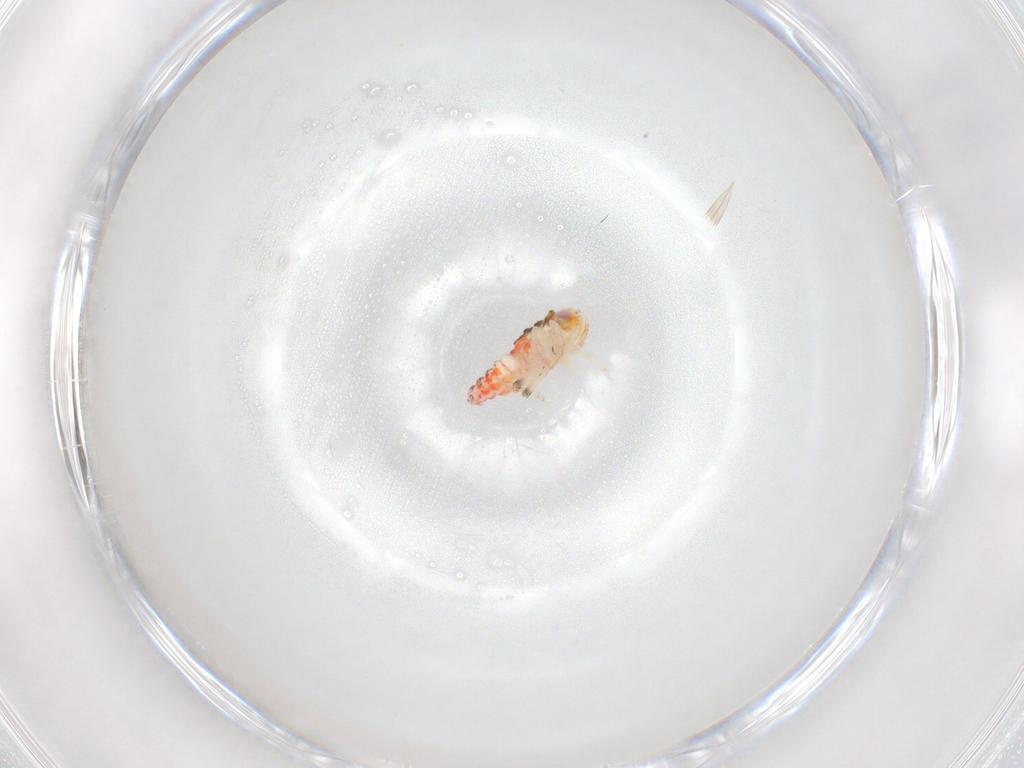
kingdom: Animalia
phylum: Arthropoda
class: Insecta
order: Hemiptera
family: Nogodinidae
